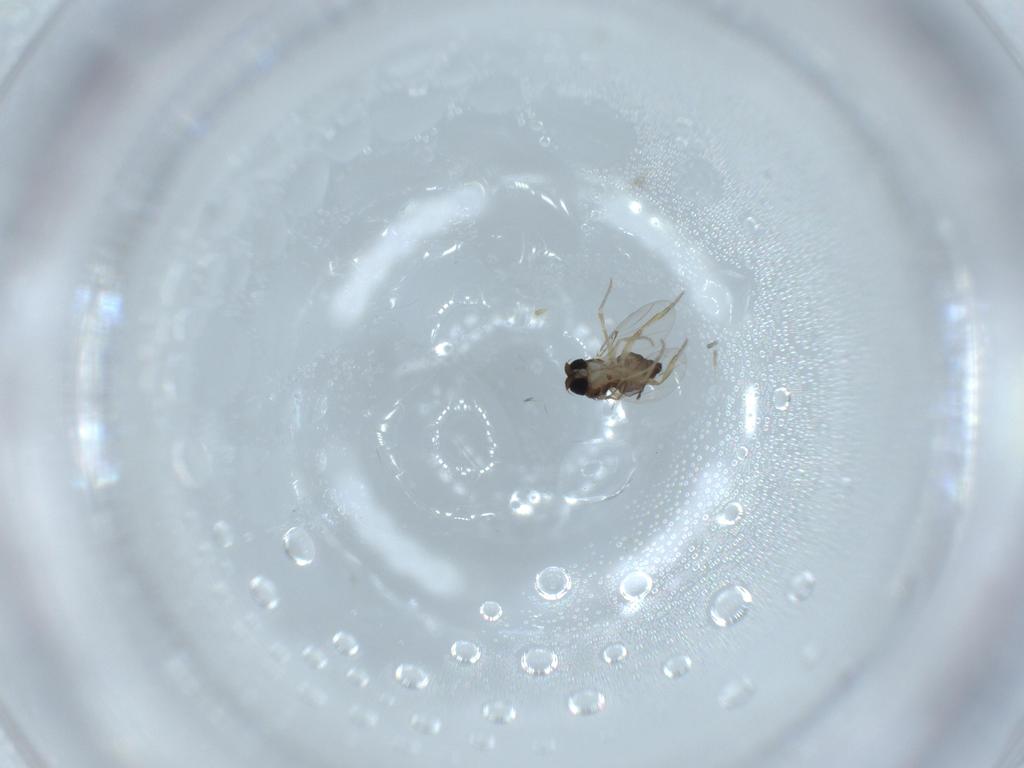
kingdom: Animalia
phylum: Arthropoda
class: Insecta
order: Diptera
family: Phoridae
